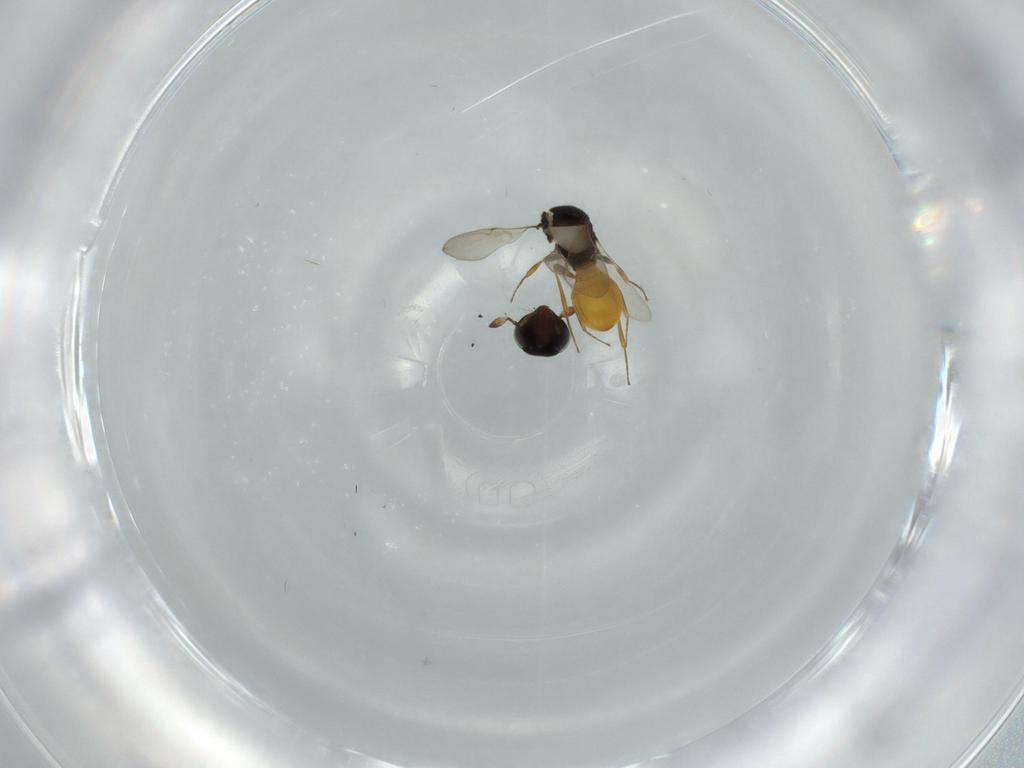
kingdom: Animalia
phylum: Arthropoda
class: Insecta
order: Hymenoptera
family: Scelionidae
